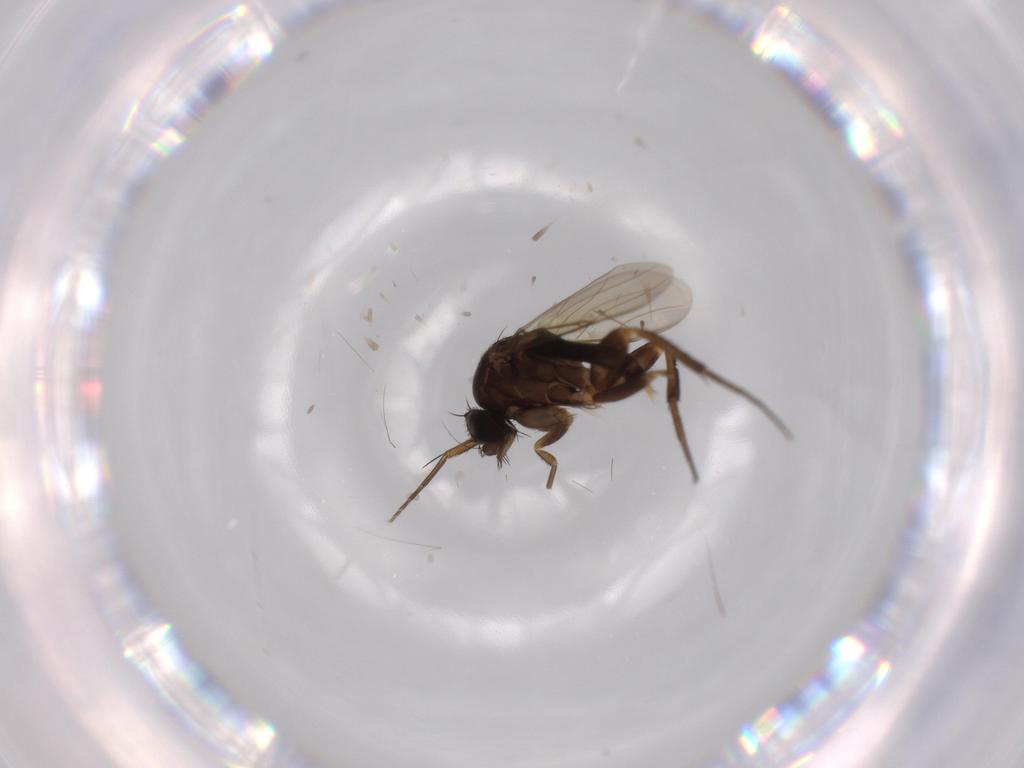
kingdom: Animalia
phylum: Arthropoda
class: Insecta
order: Diptera
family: Phoridae
